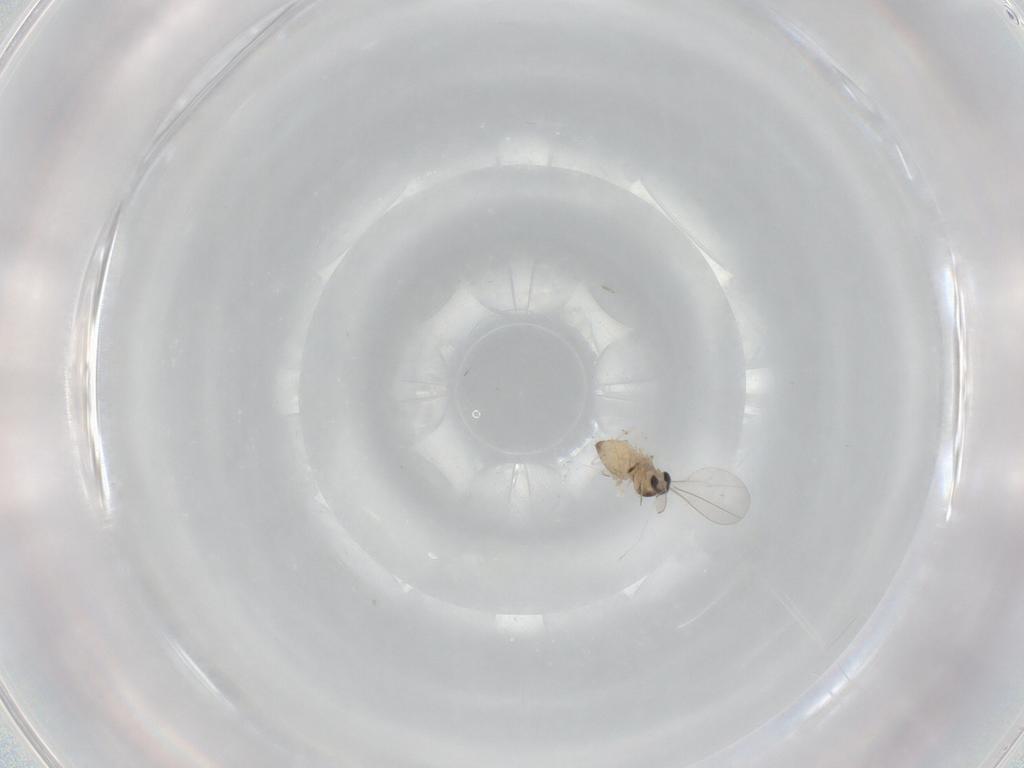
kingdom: Animalia
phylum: Arthropoda
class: Insecta
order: Diptera
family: Cecidomyiidae
